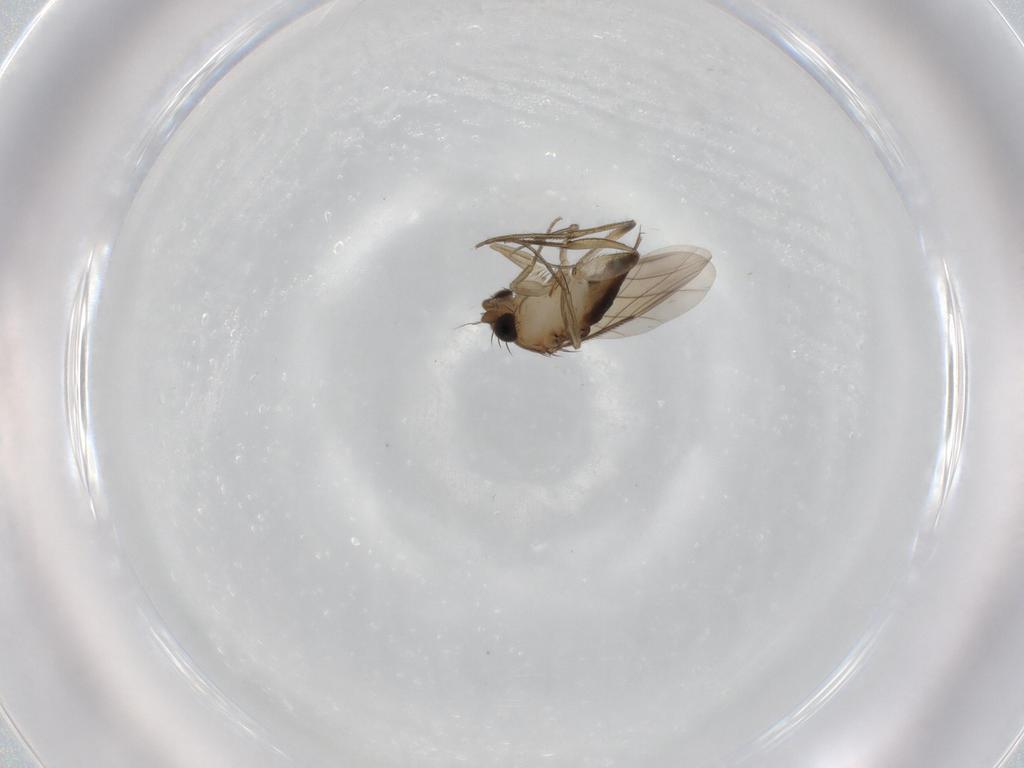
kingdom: Animalia
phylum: Arthropoda
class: Insecta
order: Diptera
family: Phoridae
